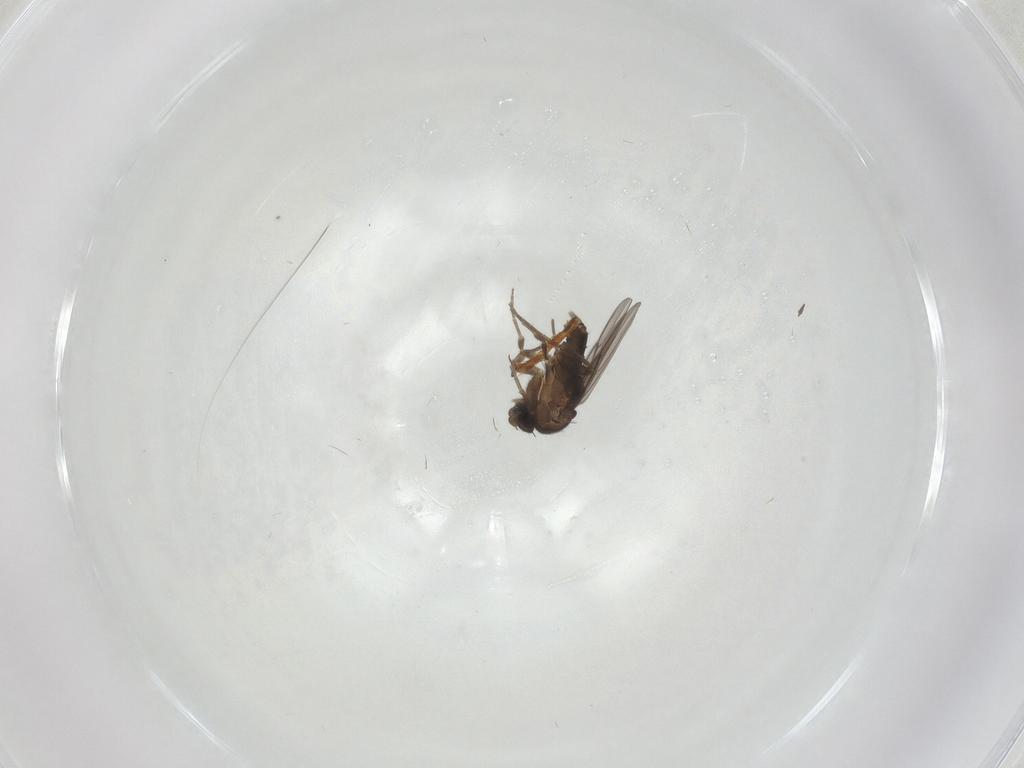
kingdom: Animalia
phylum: Arthropoda
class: Insecta
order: Diptera
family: Phoridae
